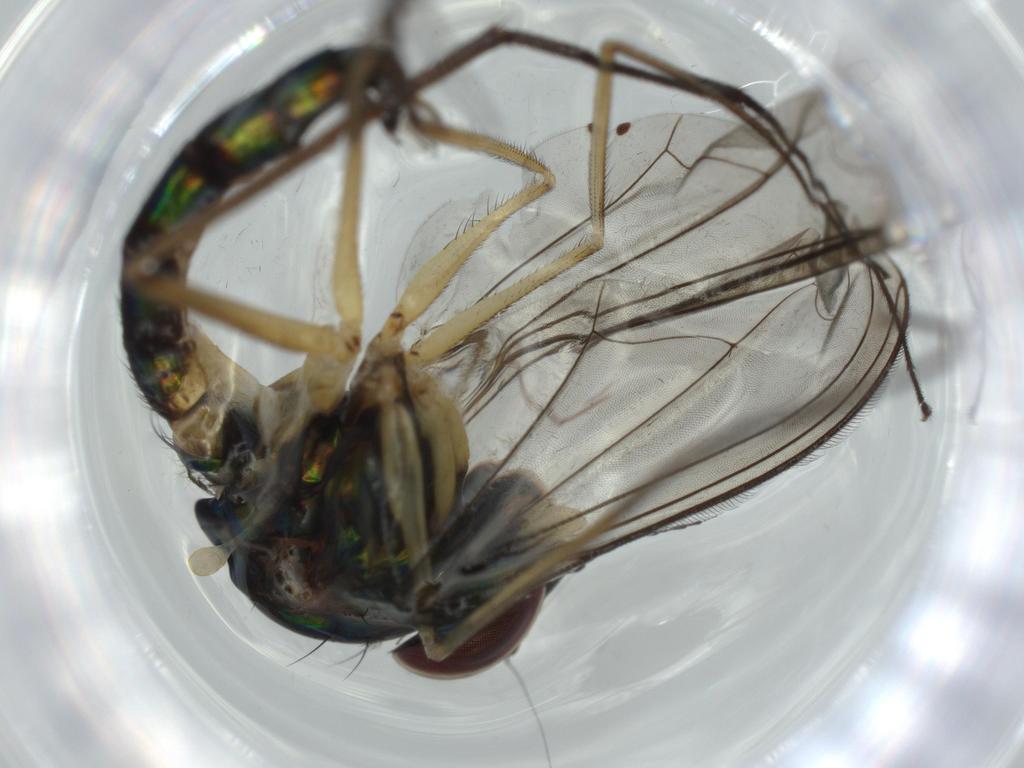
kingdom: Animalia
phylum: Arthropoda
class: Insecta
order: Diptera
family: Dolichopodidae
